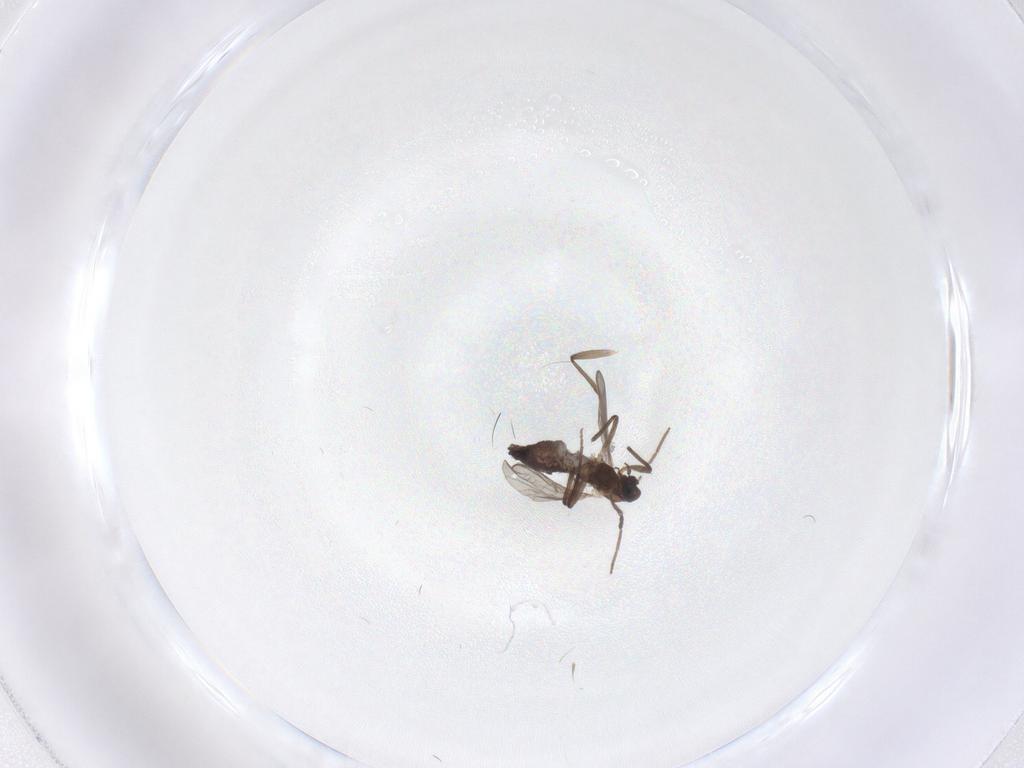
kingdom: Animalia
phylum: Arthropoda
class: Insecta
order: Diptera
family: Chironomidae
